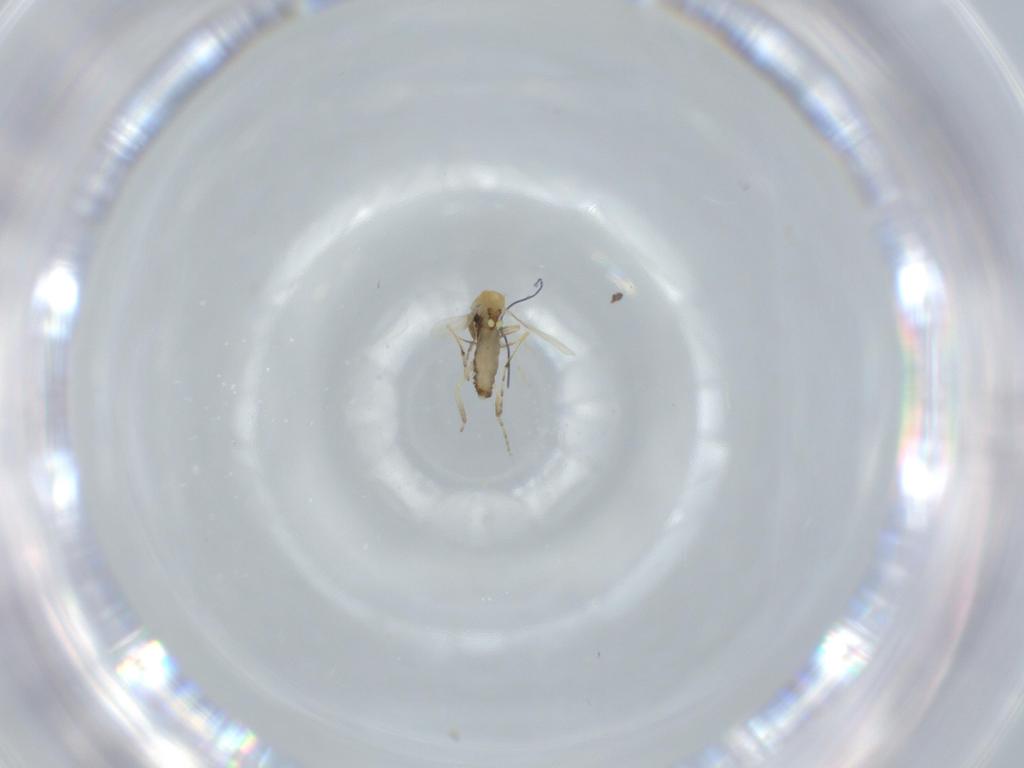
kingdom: Animalia
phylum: Arthropoda
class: Insecta
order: Diptera
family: Ceratopogonidae
